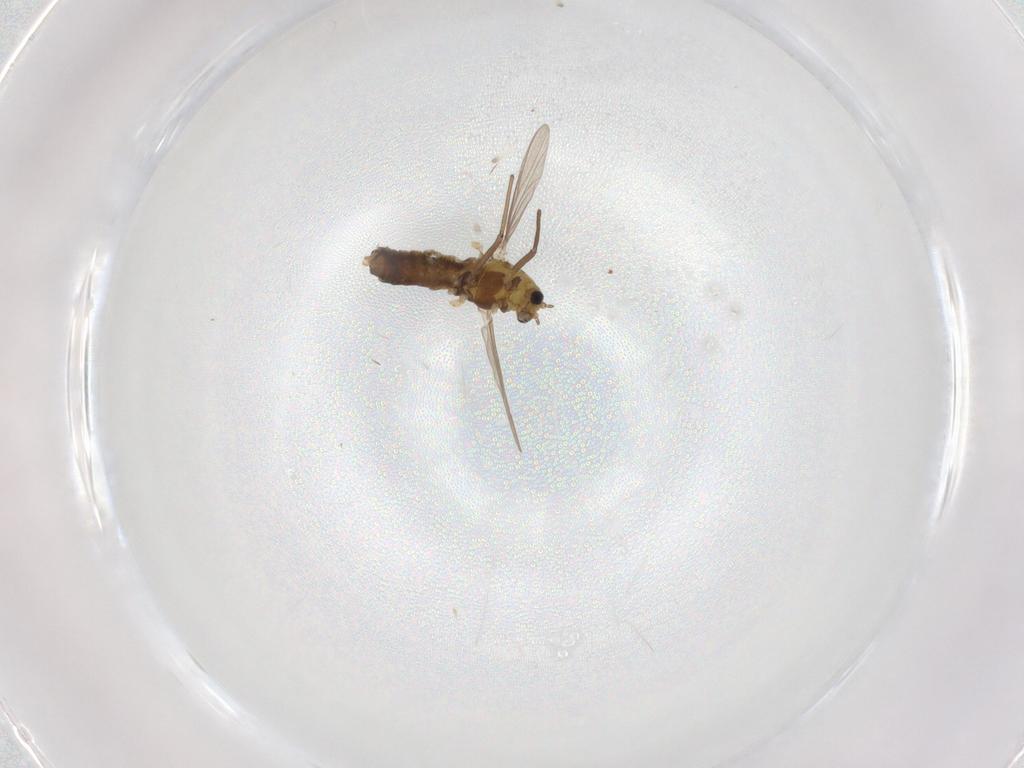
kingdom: Animalia
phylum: Arthropoda
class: Insecta
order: Diptera
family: Chironomidae
